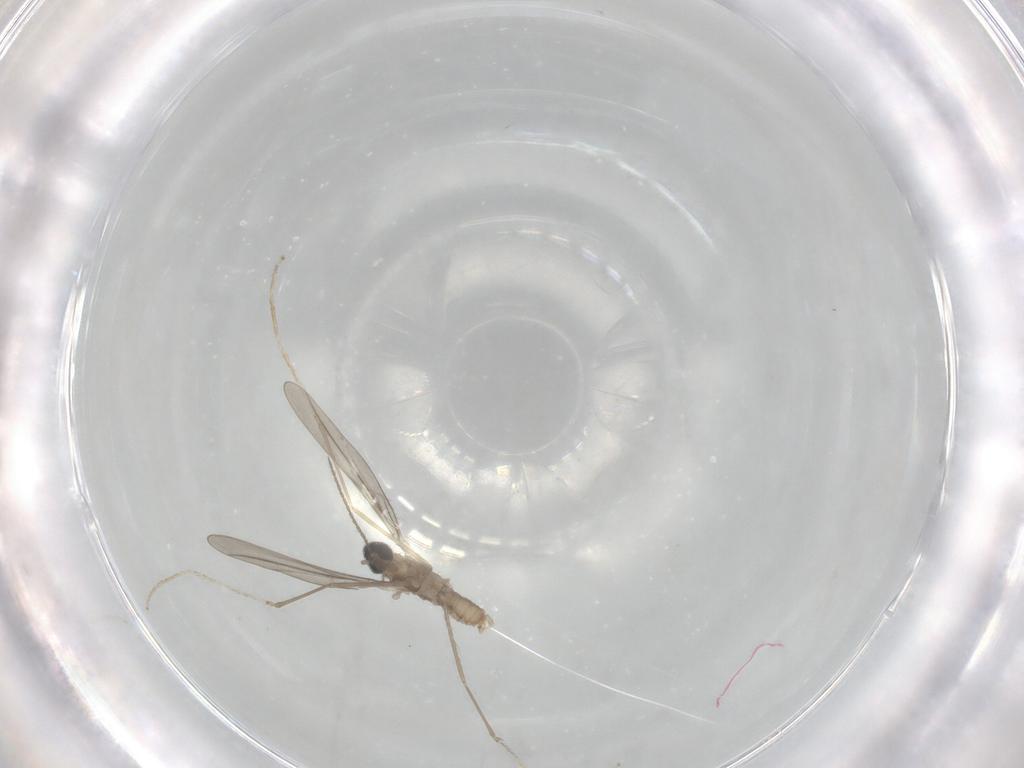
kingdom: Animalia
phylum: Arthropoda
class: Insecta
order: Diptera
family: Cecidomyiidae
